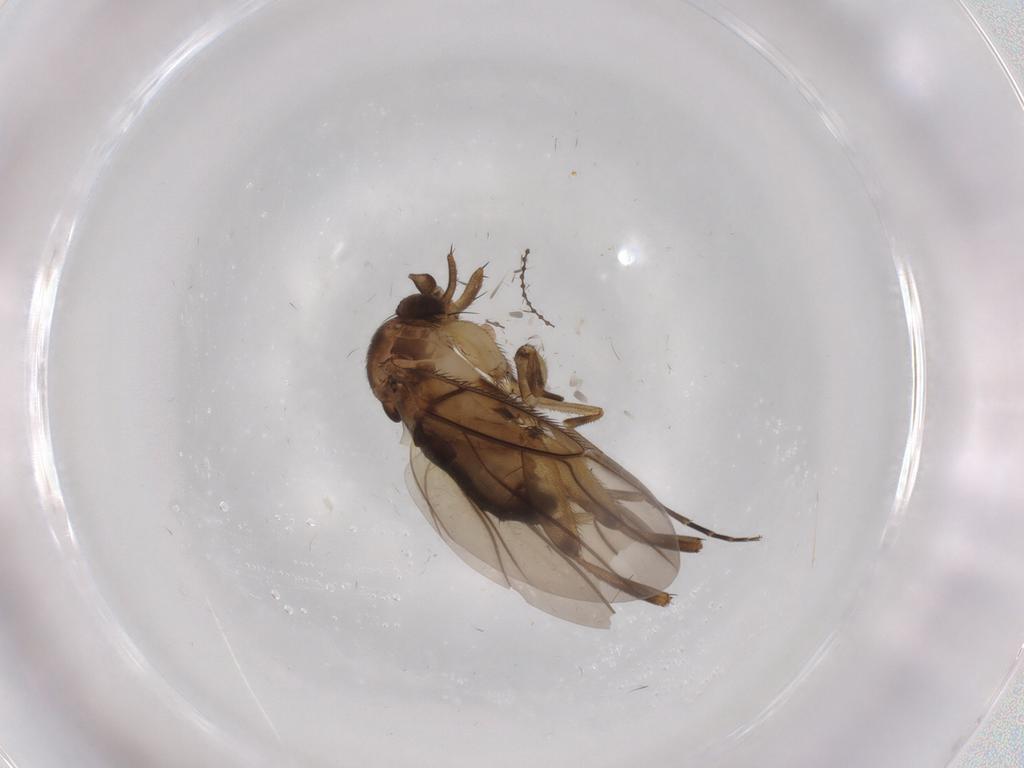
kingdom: Animalia
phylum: Arthropoda
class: Insecta
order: Diptera
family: Phoridae
